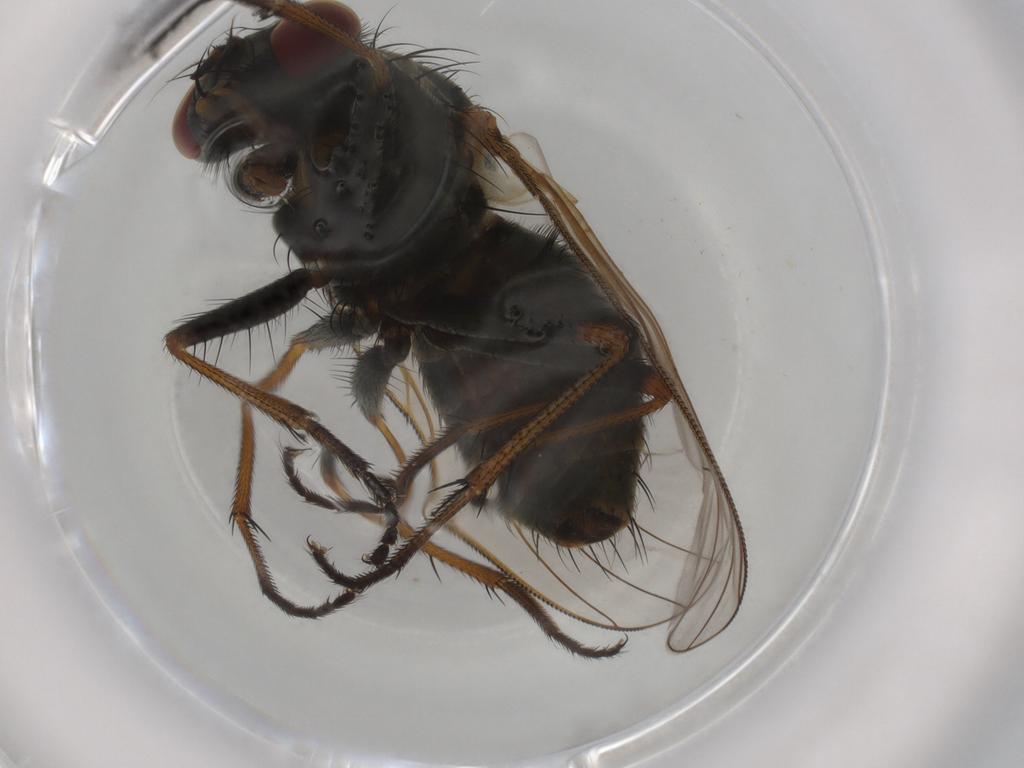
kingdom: Animalia
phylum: Arthropoda
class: Insecta
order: Diptera
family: Muscidae
